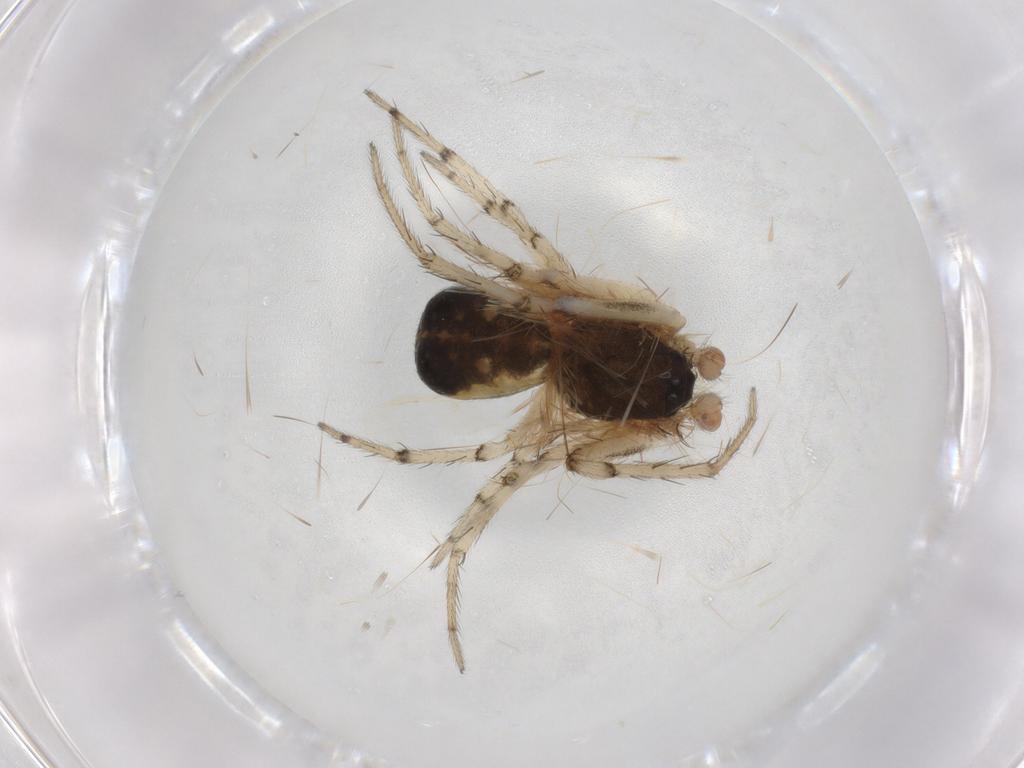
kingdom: Animalia
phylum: Arthropoda
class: Arachnida
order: Araneae
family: Araneidae
